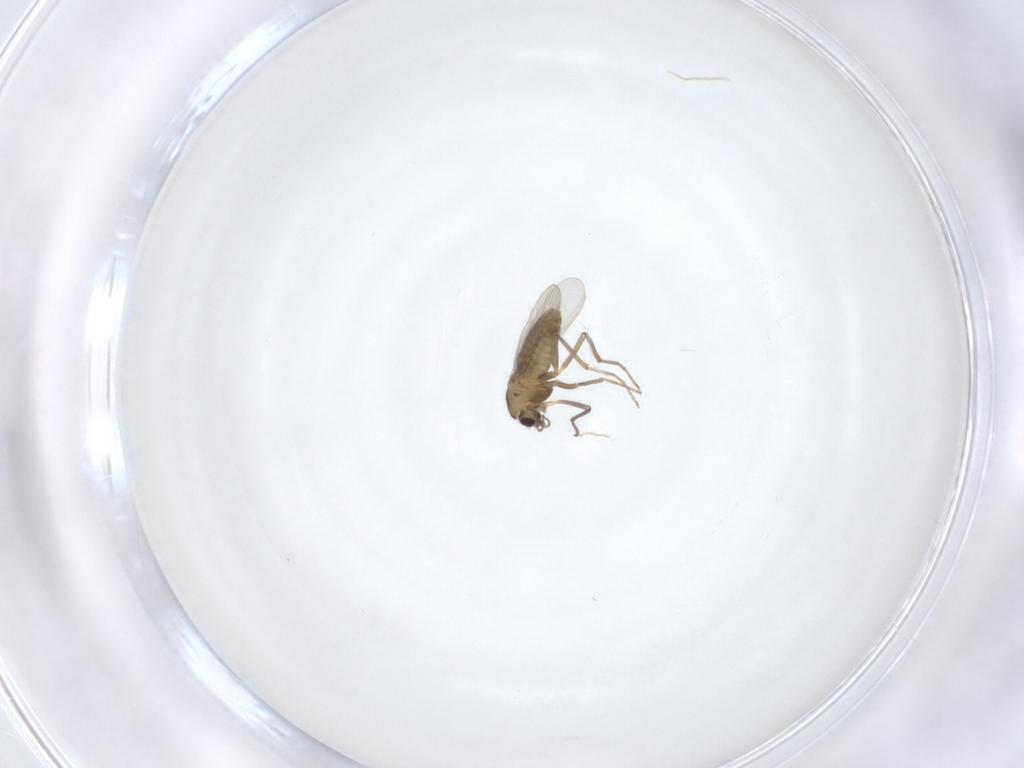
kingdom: Animalia
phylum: Arthropoda
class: Insecta
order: Diptera
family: Chironomidae
